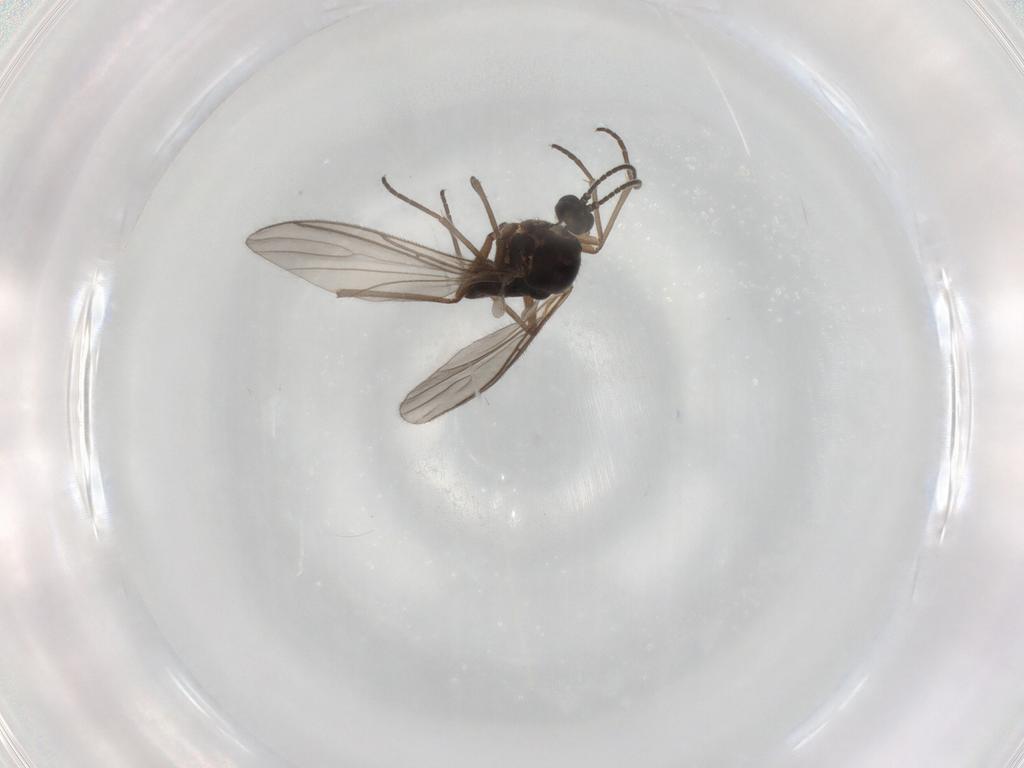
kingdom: Animalia
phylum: Arthropoda
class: Insecta
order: Diptera
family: Sciaridae
